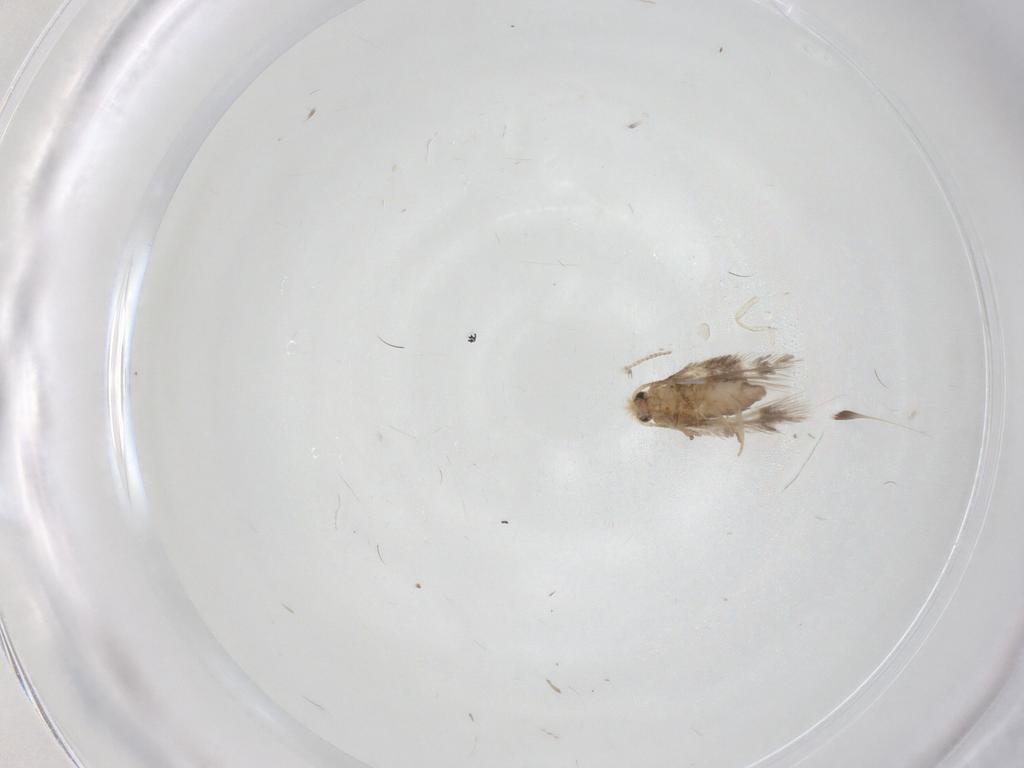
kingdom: Animalia
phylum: Arthropoda
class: Insecta
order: Lepidoptera
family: Nepticulidae
